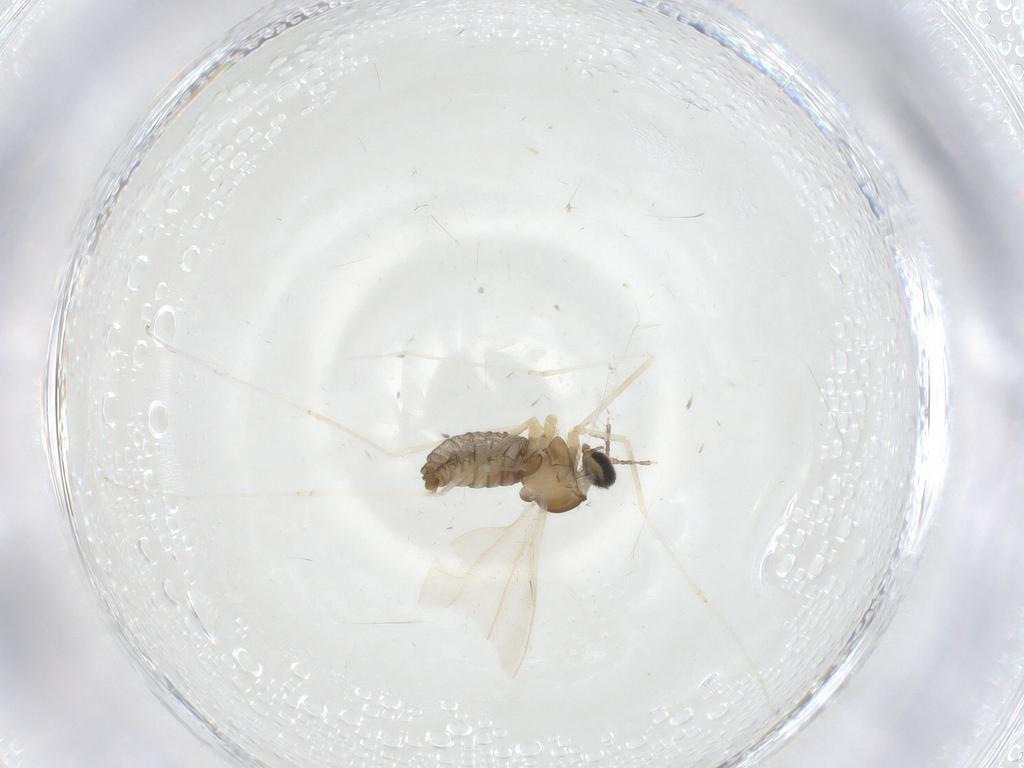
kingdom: Animalia
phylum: Arthropoda
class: Insecta
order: Diptera
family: Cecidomyiidae
